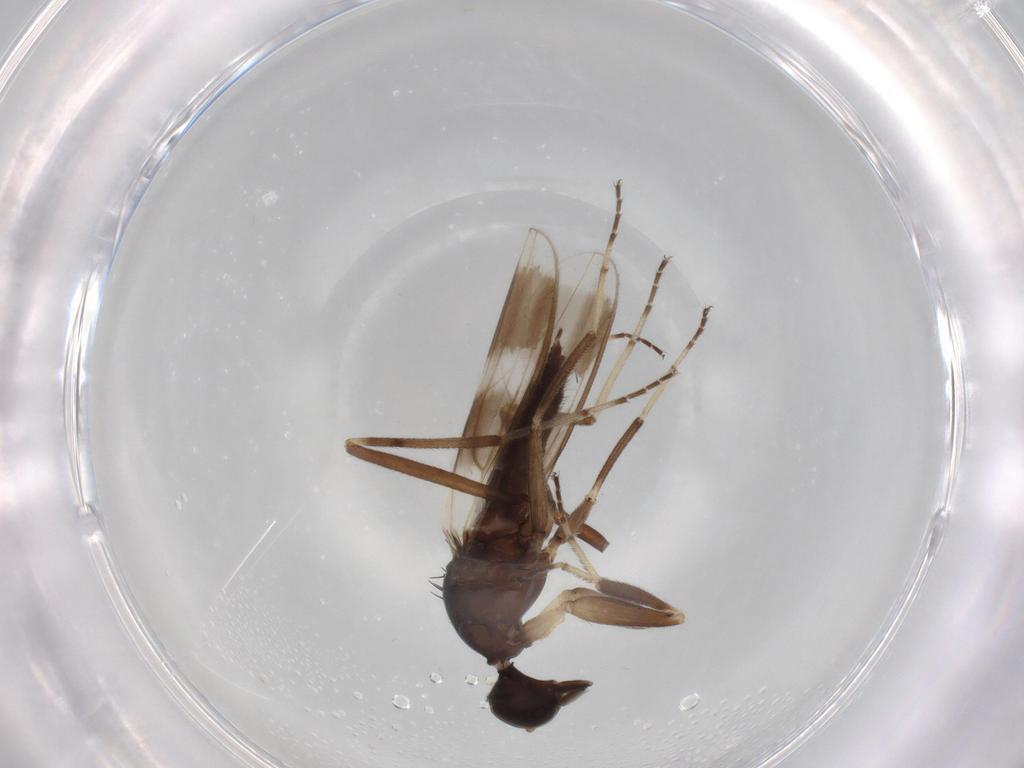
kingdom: Animalia
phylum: Arthropoda
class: Insecta
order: Diptera
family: Hybotidae
